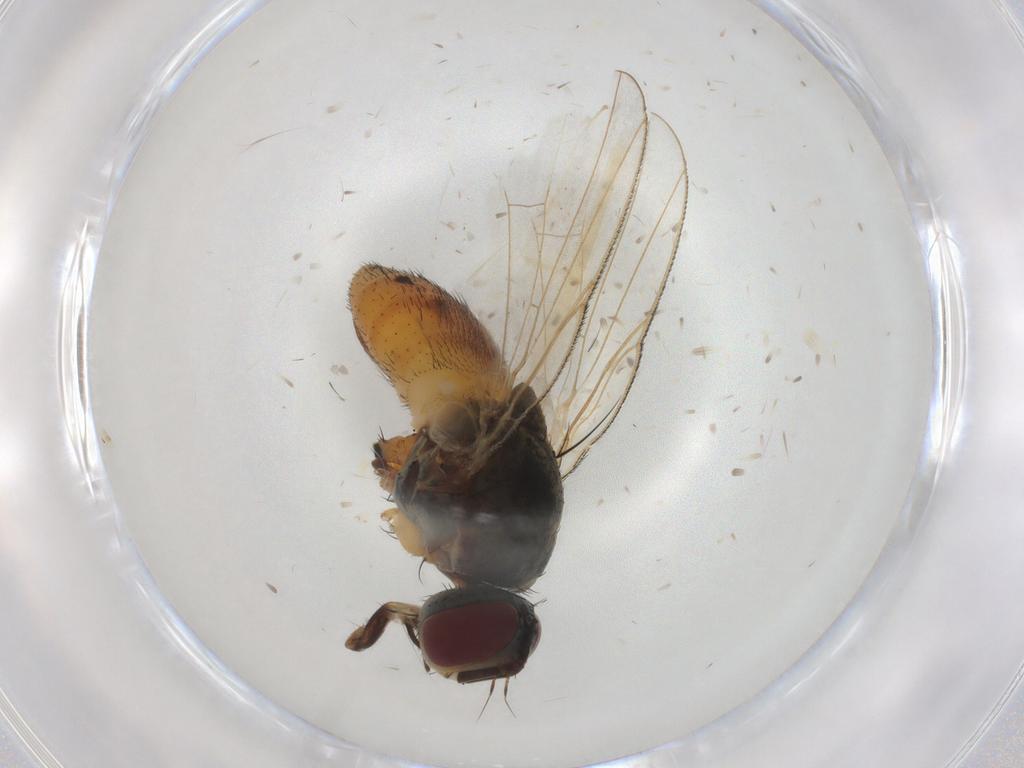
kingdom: Animalia
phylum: Arthropoda
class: Insecta
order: Diptera
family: Muscidae
